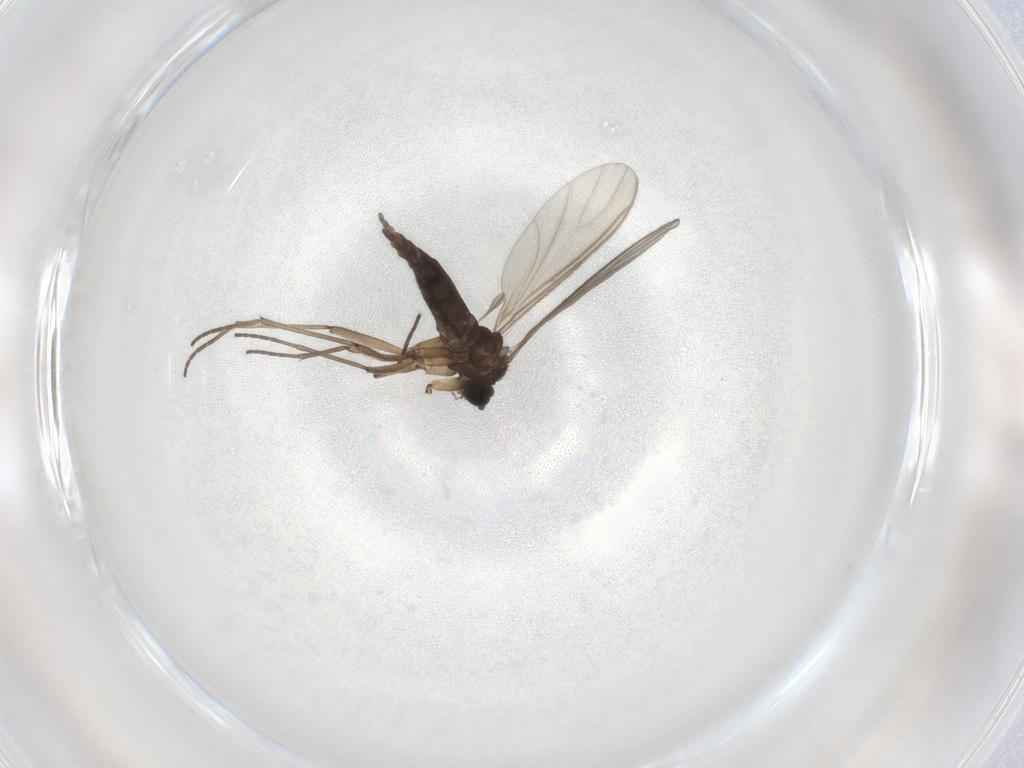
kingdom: Animalia
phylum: Arthropoda
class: Insecta
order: Diptera
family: Sciaridae
